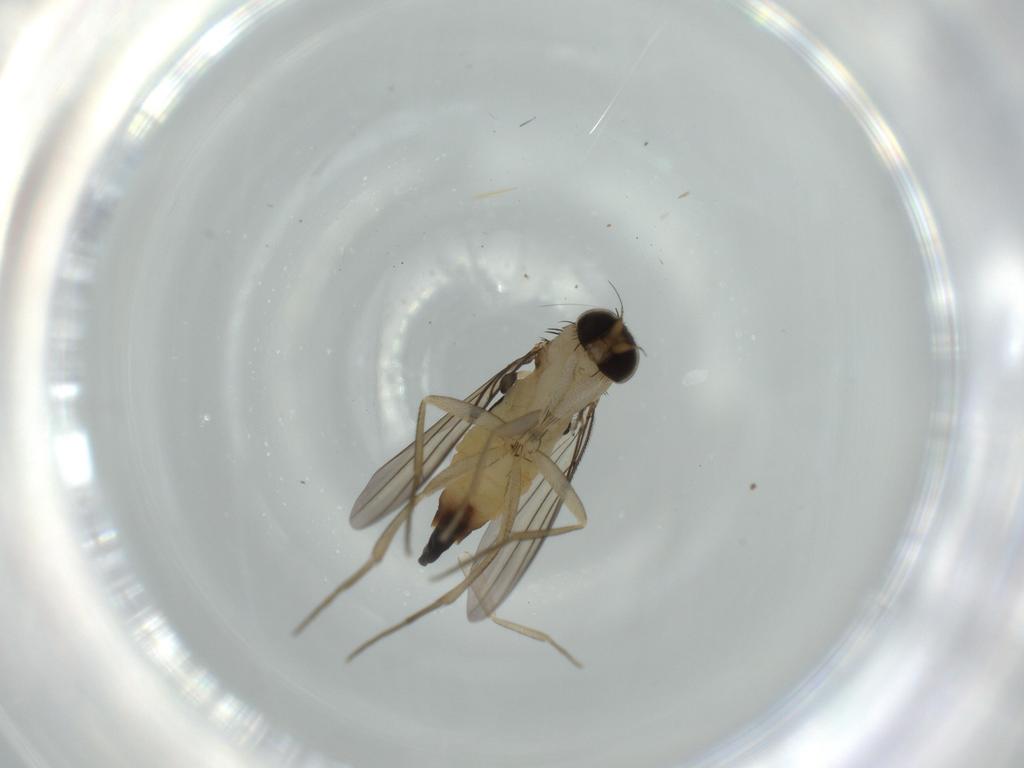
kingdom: Animalia
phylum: Arthropoda
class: Insecta
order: Diptera
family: Phoridae
